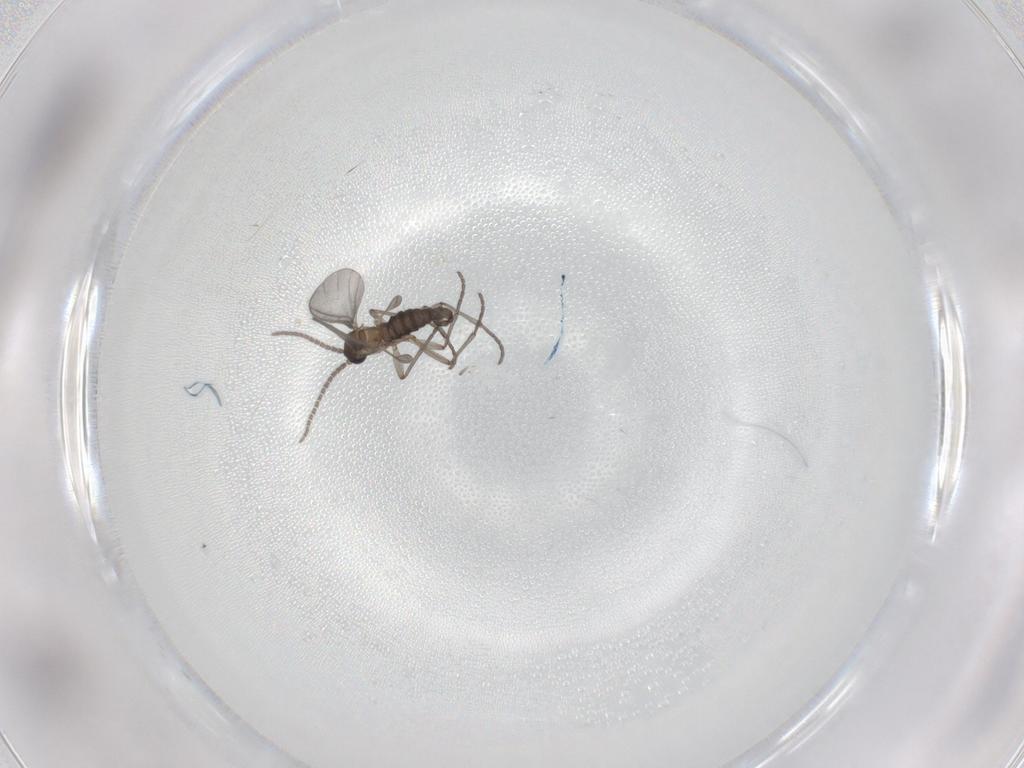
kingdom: Animalia
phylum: Arthropoda
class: Insecta
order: Diptera
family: Sciaridae
